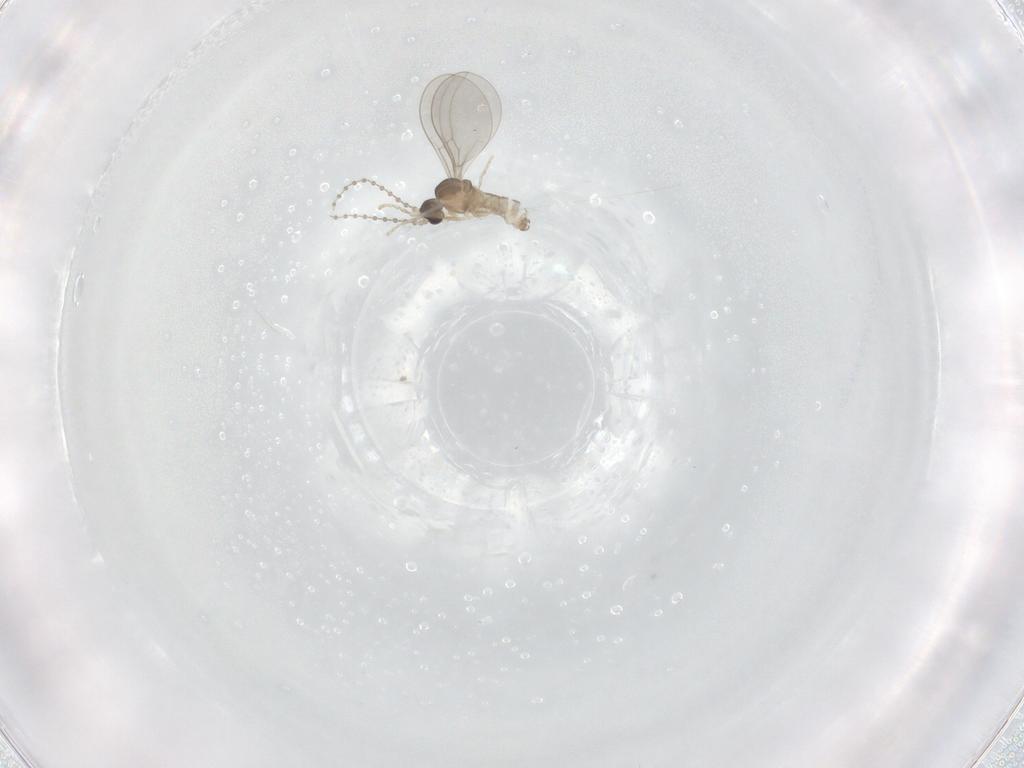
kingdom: Animalia
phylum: Arthropoda
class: Insecta
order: Diptera
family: Cecidomyiidae
